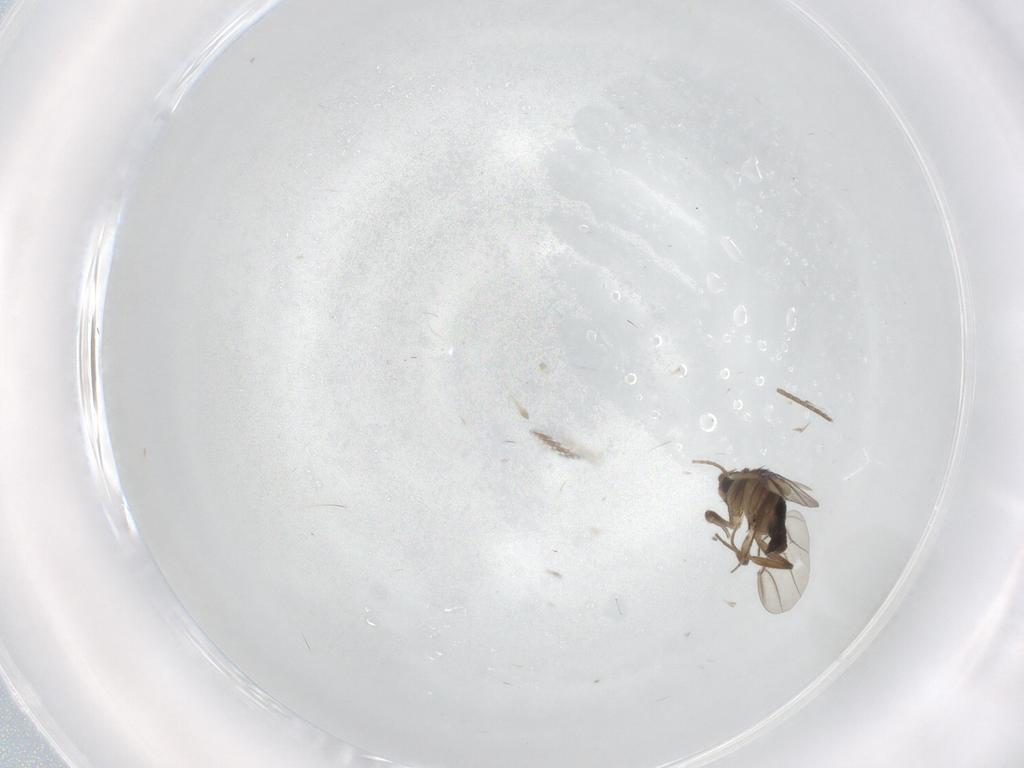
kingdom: Animalia
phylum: Arthropoda
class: Insecta
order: Diptera
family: Phoridae
